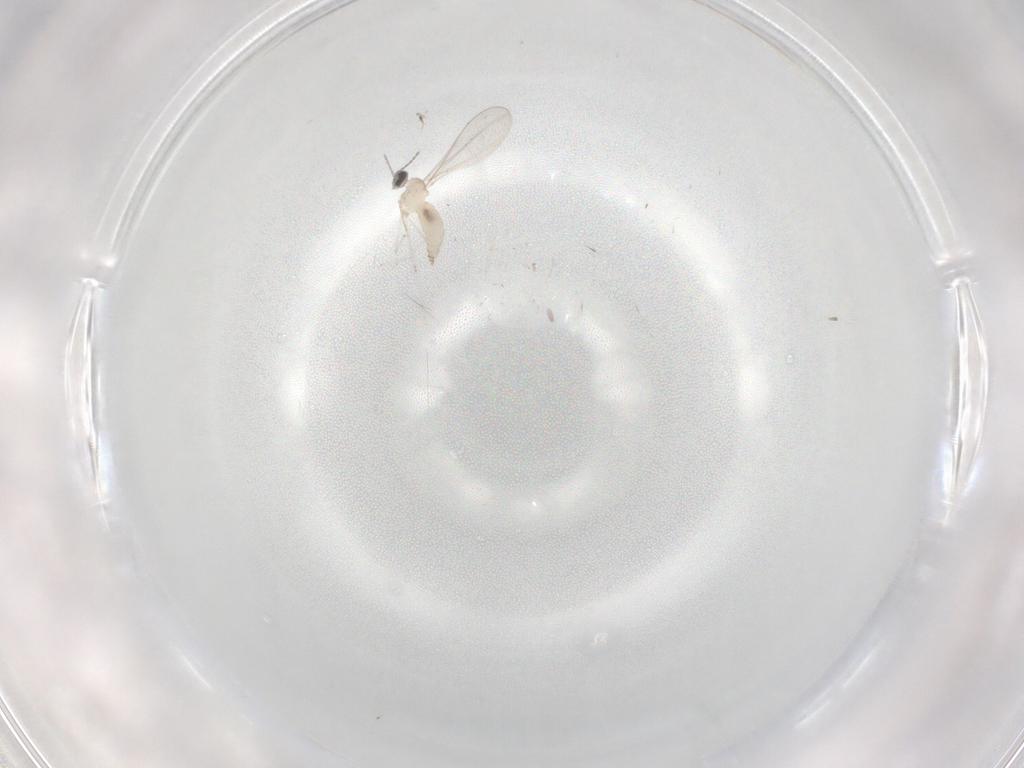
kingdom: Animalia
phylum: Arthropoda
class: Insecta
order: Diptera
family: Cecidomyiidae
